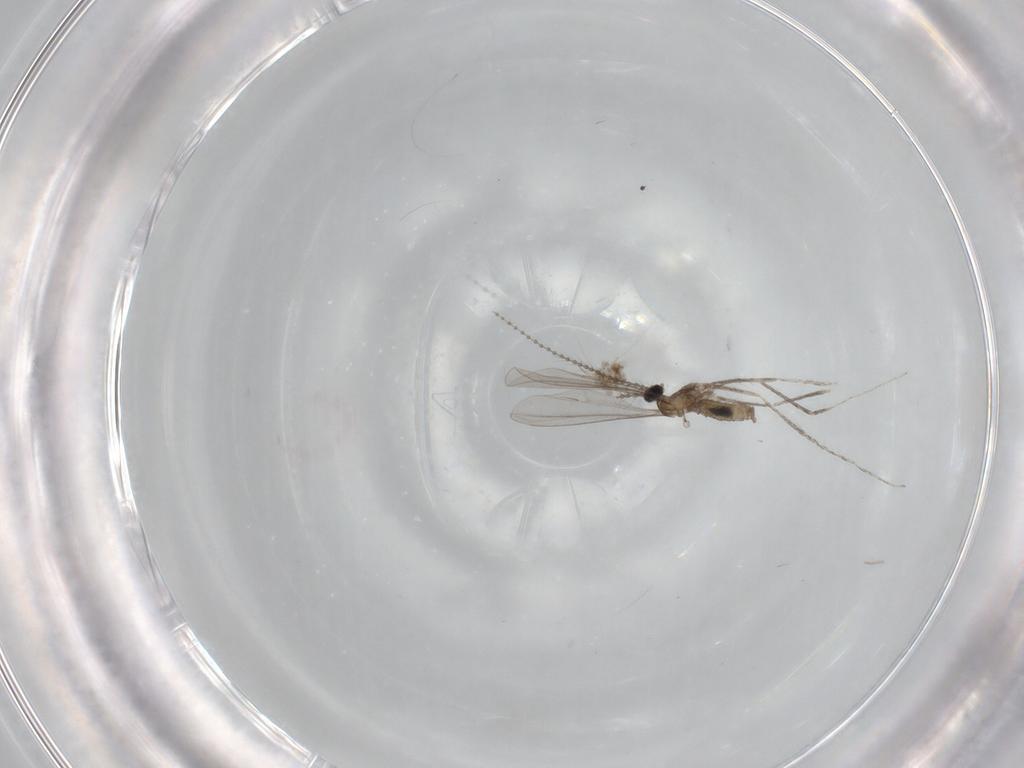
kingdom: Animalia
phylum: Arthropoda
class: Insecta
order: Diptera
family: Cecidomyiidae
